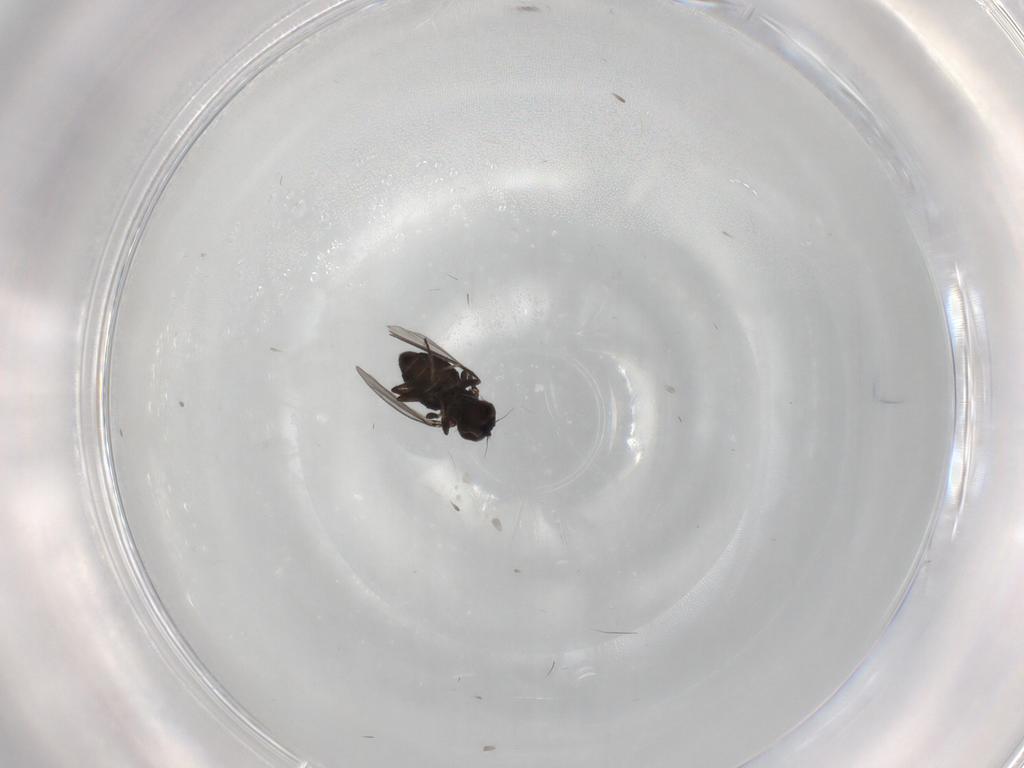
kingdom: Animalia
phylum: Arthropoda
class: Insecta
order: Diptera
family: Dolichopodidae
